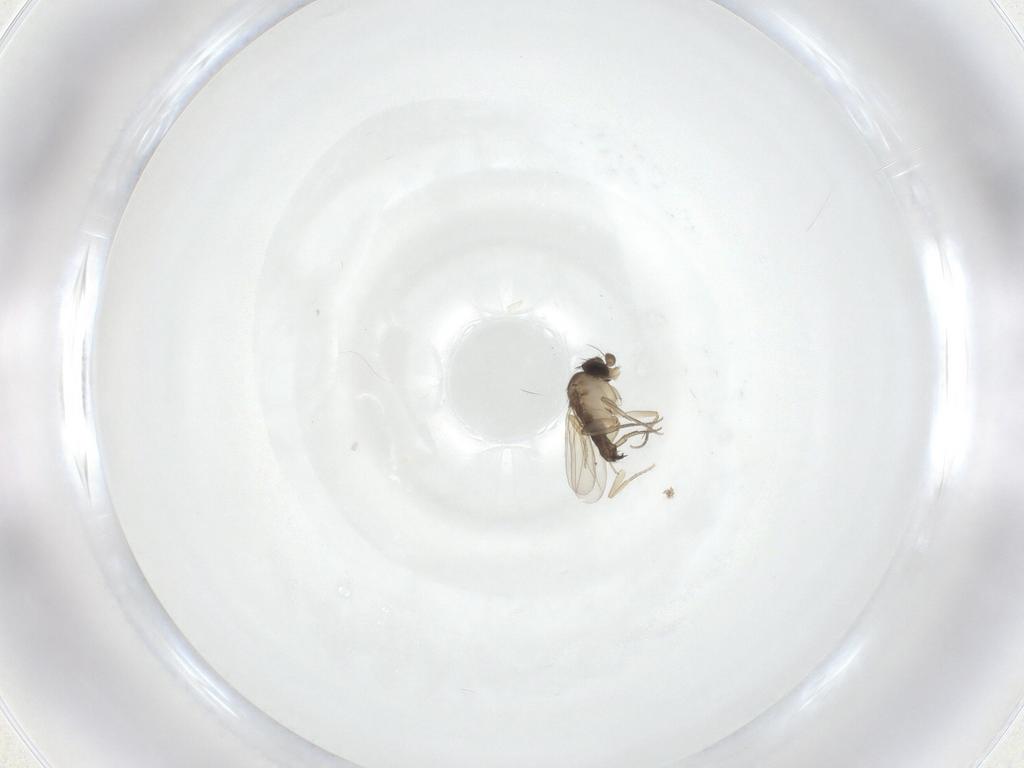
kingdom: Animalia
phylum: Arthropoda
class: Insecta
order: Diptera
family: Phoridae
